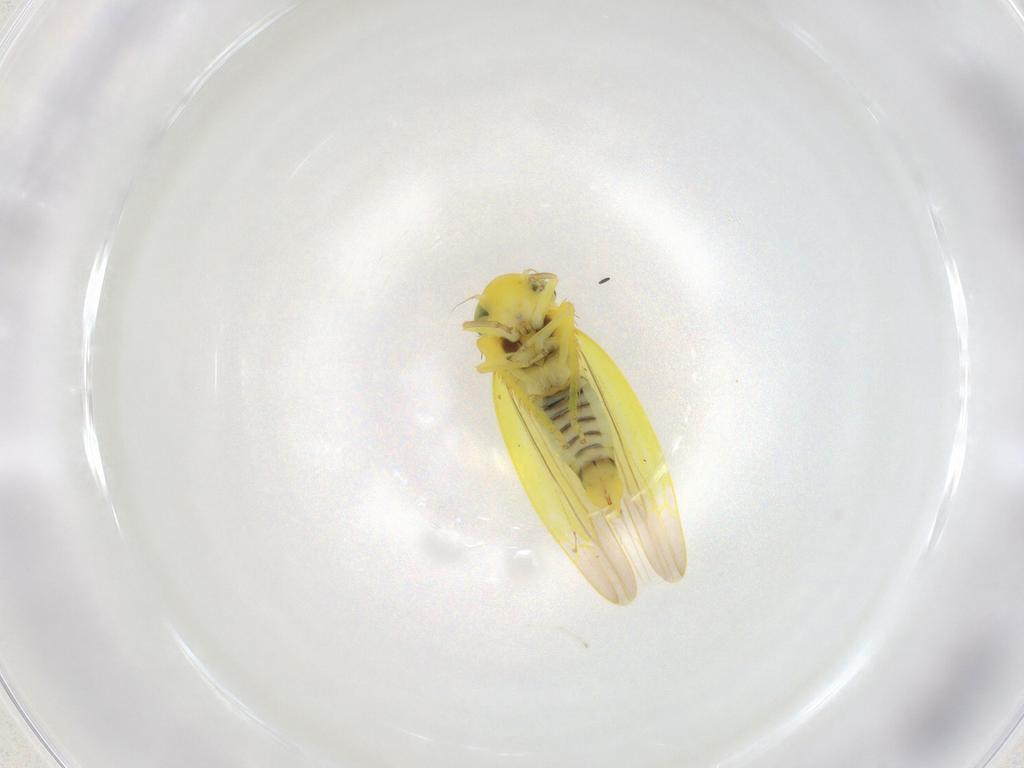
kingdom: Animalia
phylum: Arthropoda
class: Insecta
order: Hemiptera
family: Cicadellidae
